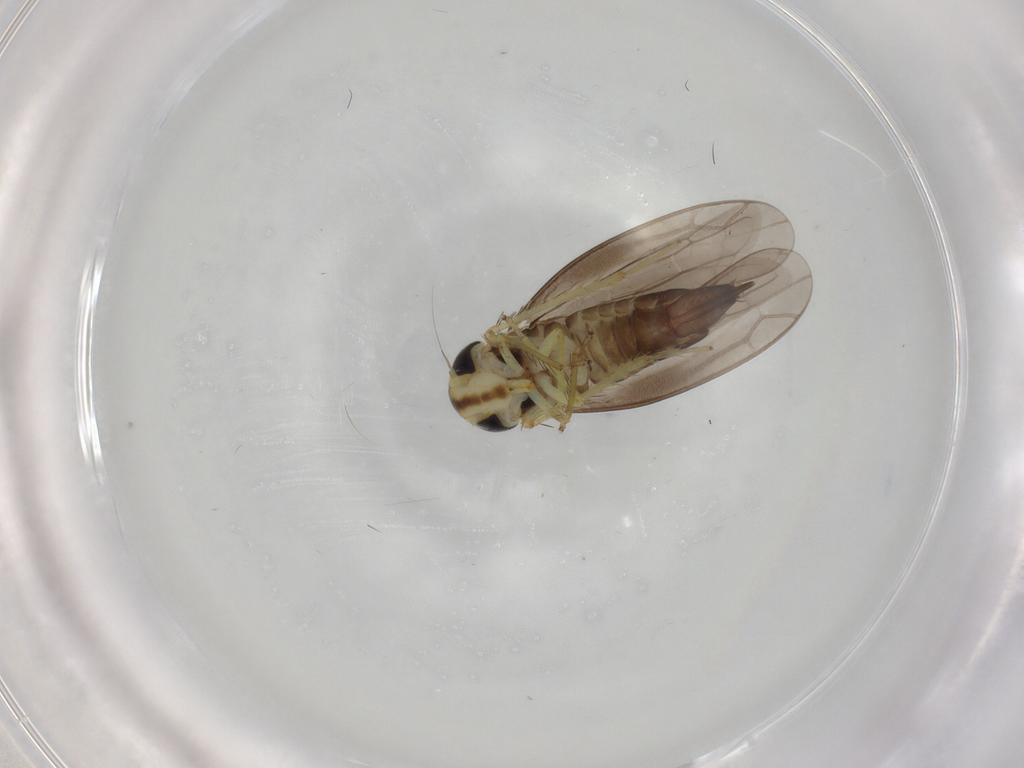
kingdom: Animalia
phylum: Arthropoda
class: Insecta
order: Hemiptera
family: Cicadellidae
